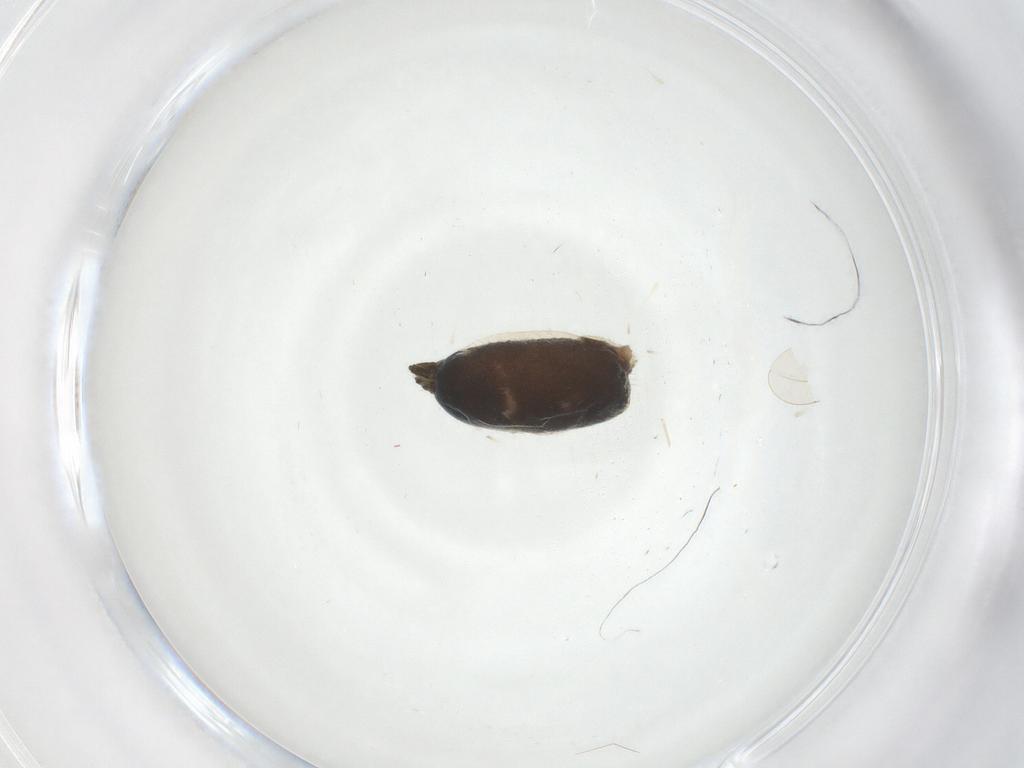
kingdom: Animalia
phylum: Arthropoda
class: Arachnida
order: Araneae
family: Salticidae
